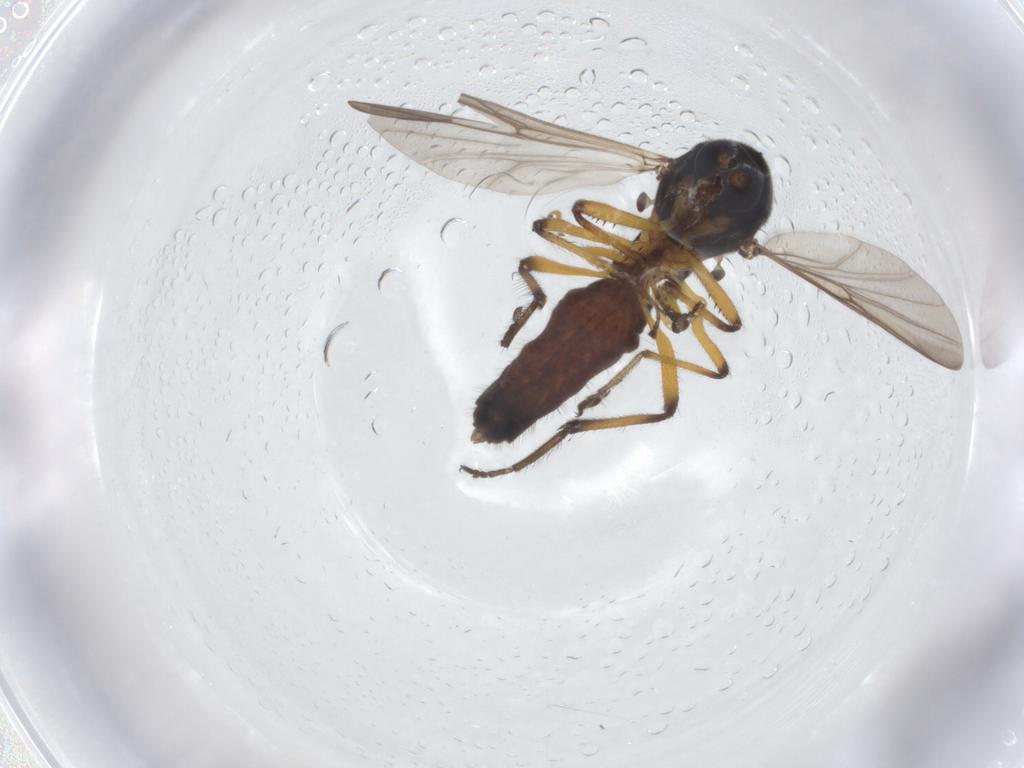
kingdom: Animalia
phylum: Arthropoda
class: Insecta
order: Diptera
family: Ceratopogonidae
